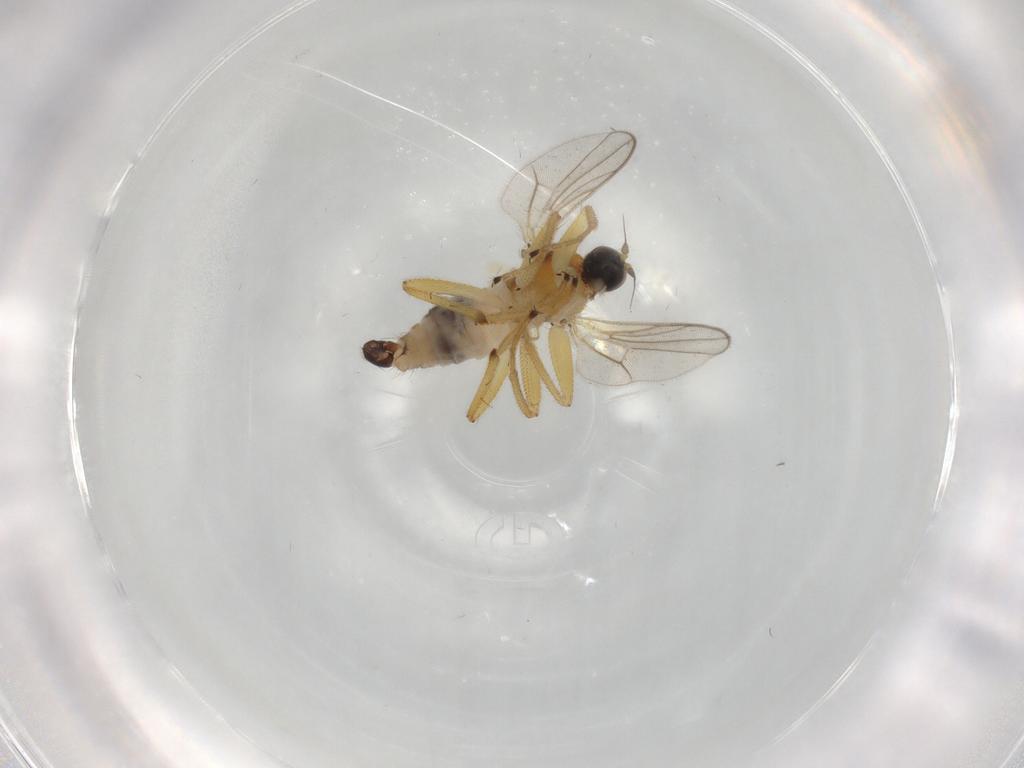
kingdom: Animalia
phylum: Arthropoda
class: Insecta
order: Diptera
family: Hybotidae
